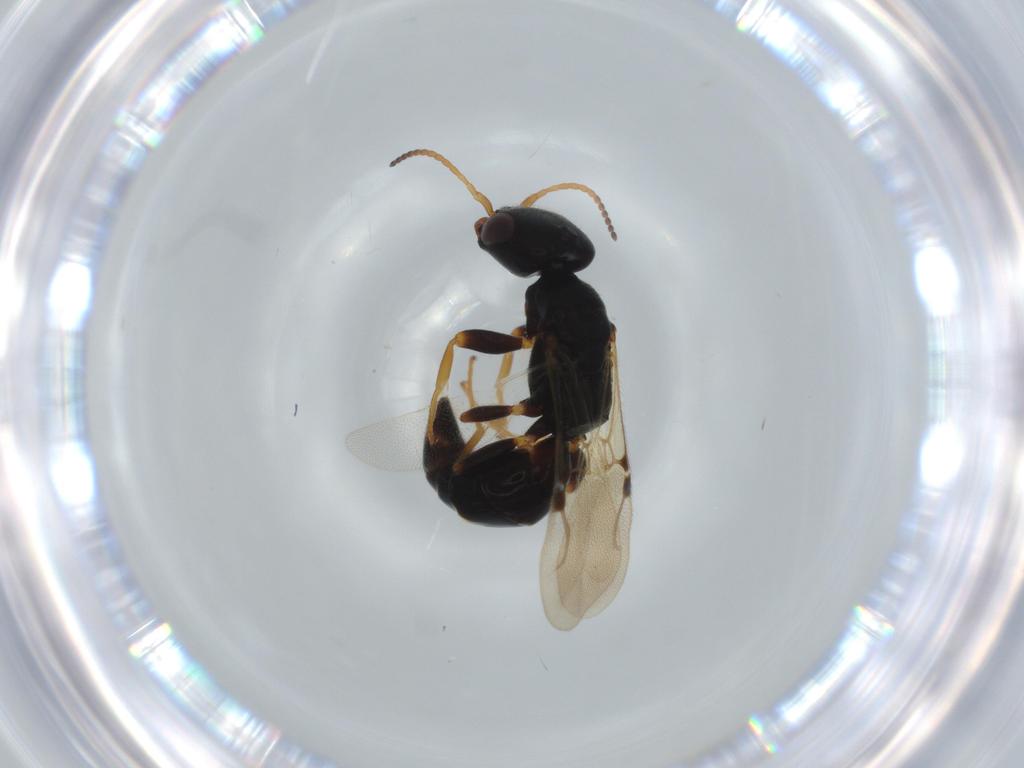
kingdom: Animalia
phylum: Arthropoda
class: Insecta
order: Hymenoptera
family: Bethylidae
